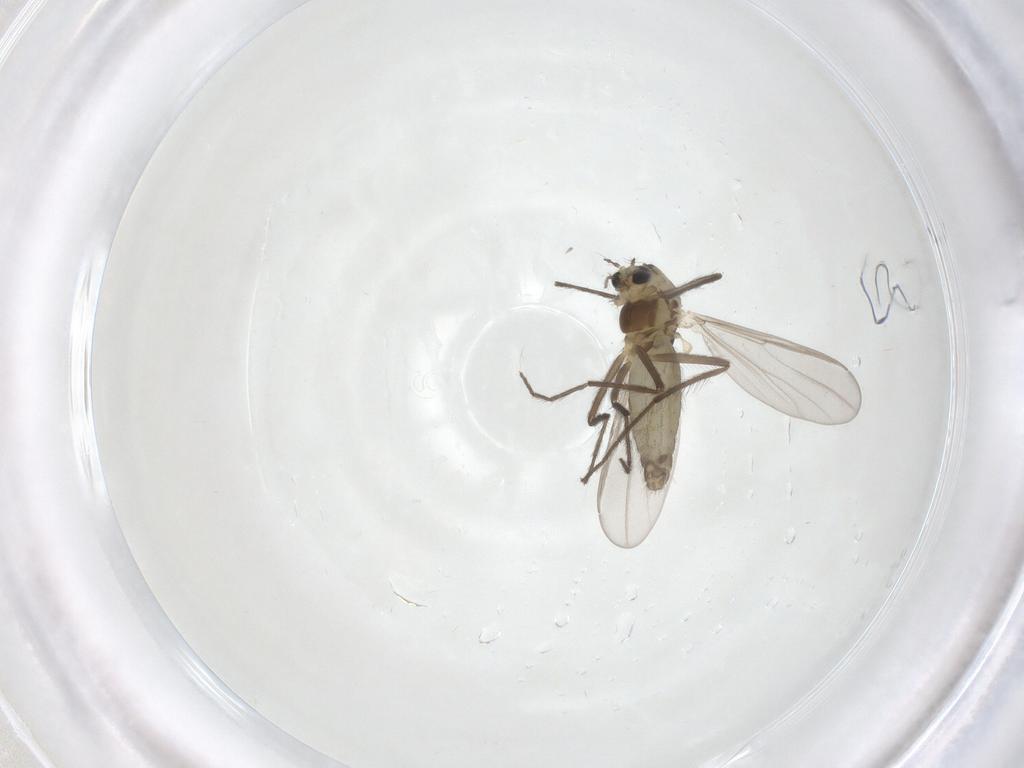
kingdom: Animalia
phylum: Arthropoda
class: Insecta
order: Diptera
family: Chironomidae
